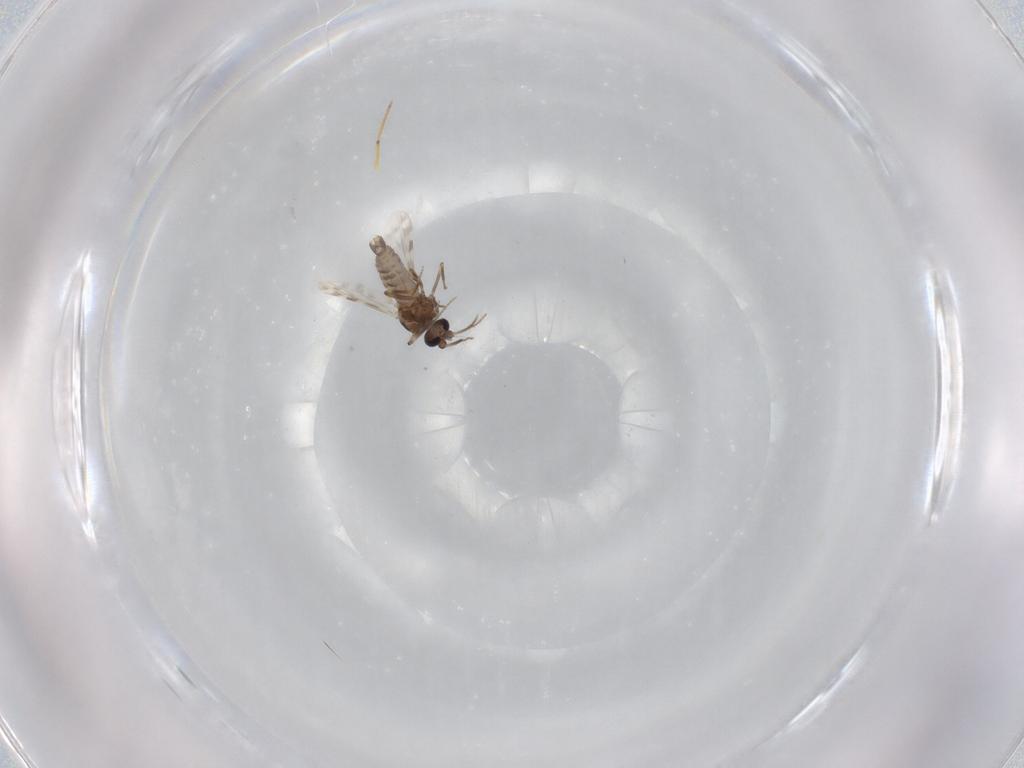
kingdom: Animalia
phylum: Arthropoda
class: Insecta
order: Diptera
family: Ceratopogonidae
